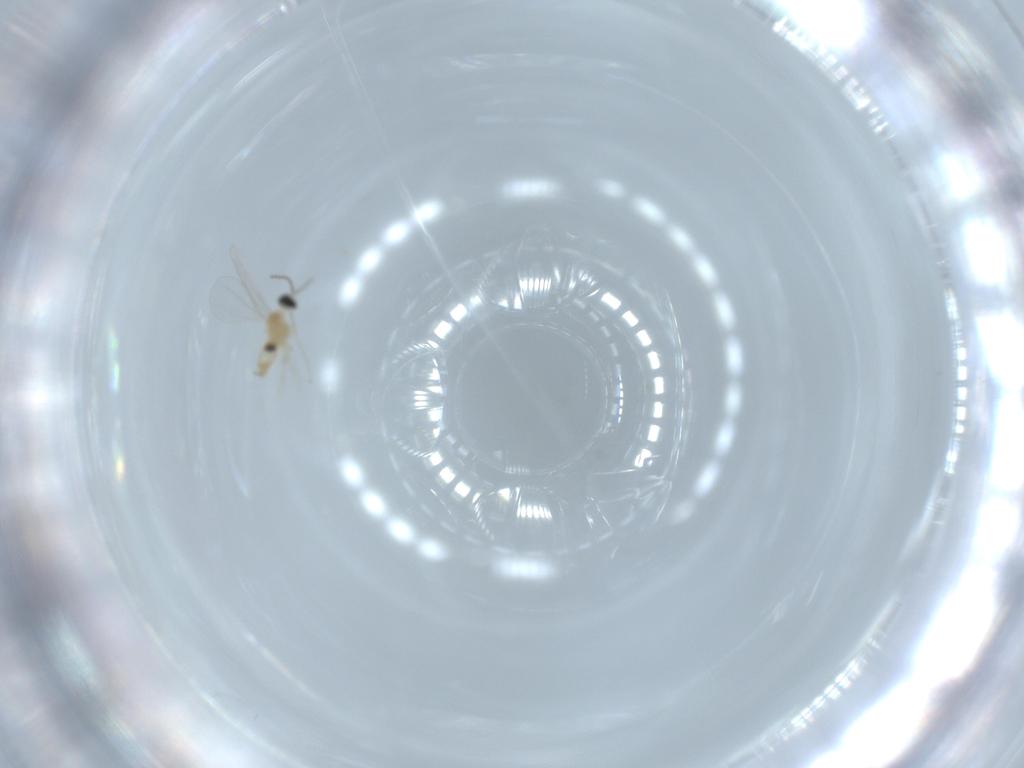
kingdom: Animalia
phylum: Arthropoda
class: Insecta
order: Diptera
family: Cecidomyiidae
